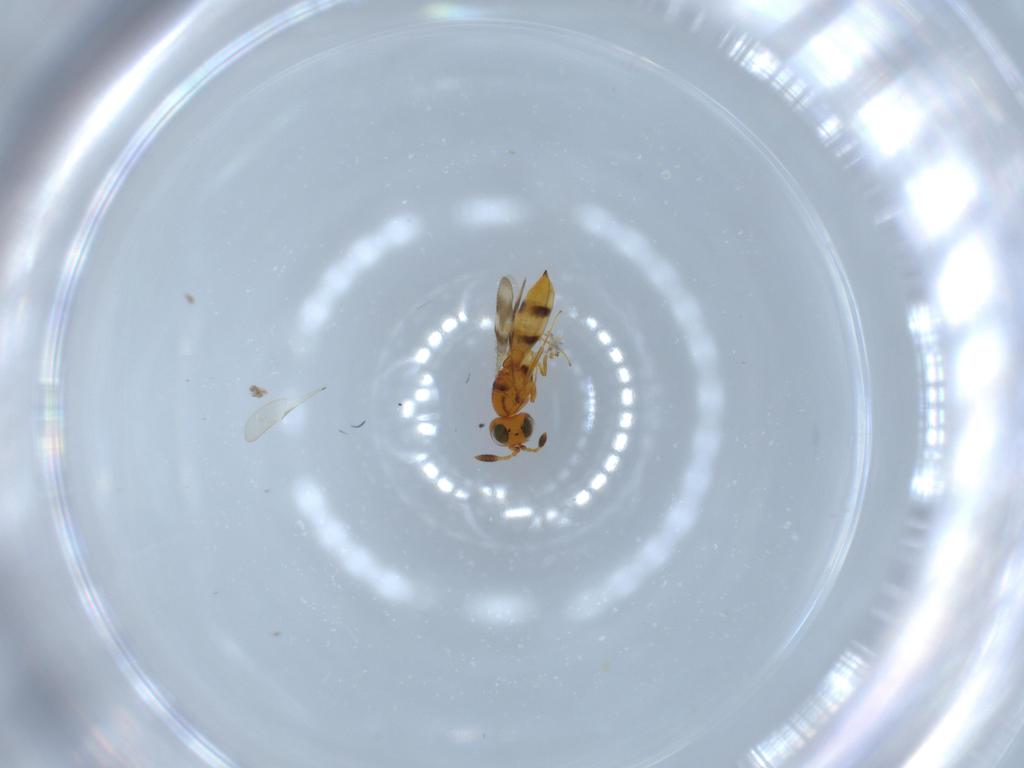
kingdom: Animalia
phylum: Arthropoda
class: Insecta
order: Hymenoptera
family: Scelionidae
